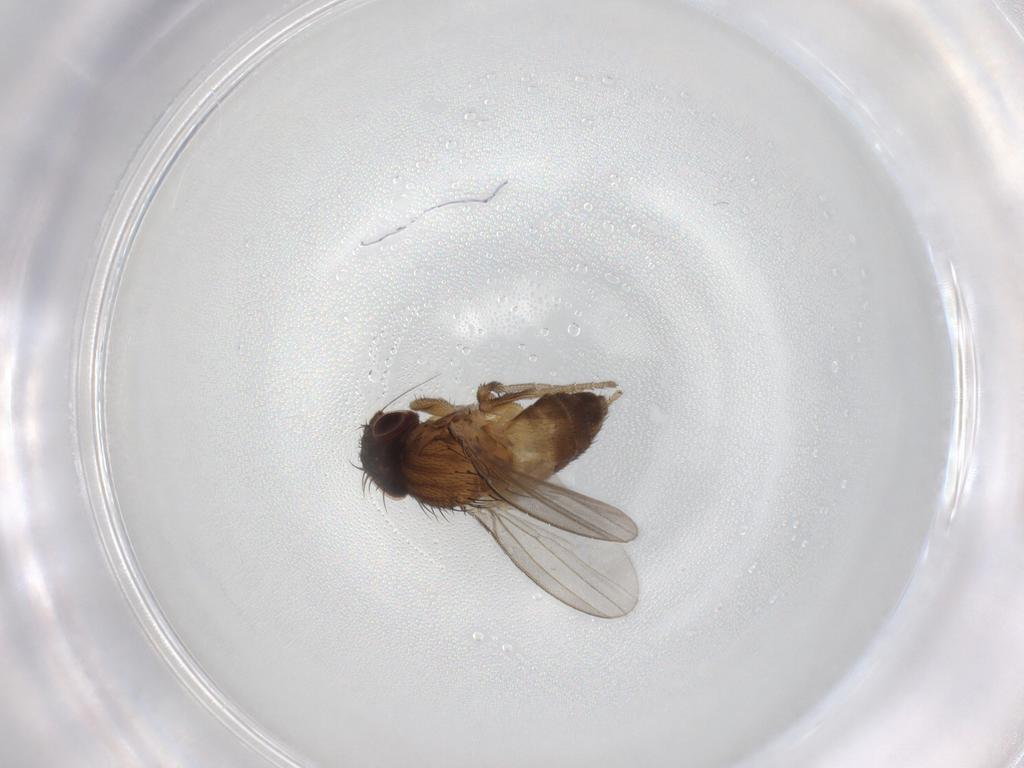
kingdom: Animalia
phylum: Arthropoda
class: Insecta
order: Diptera
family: Milichiidae
